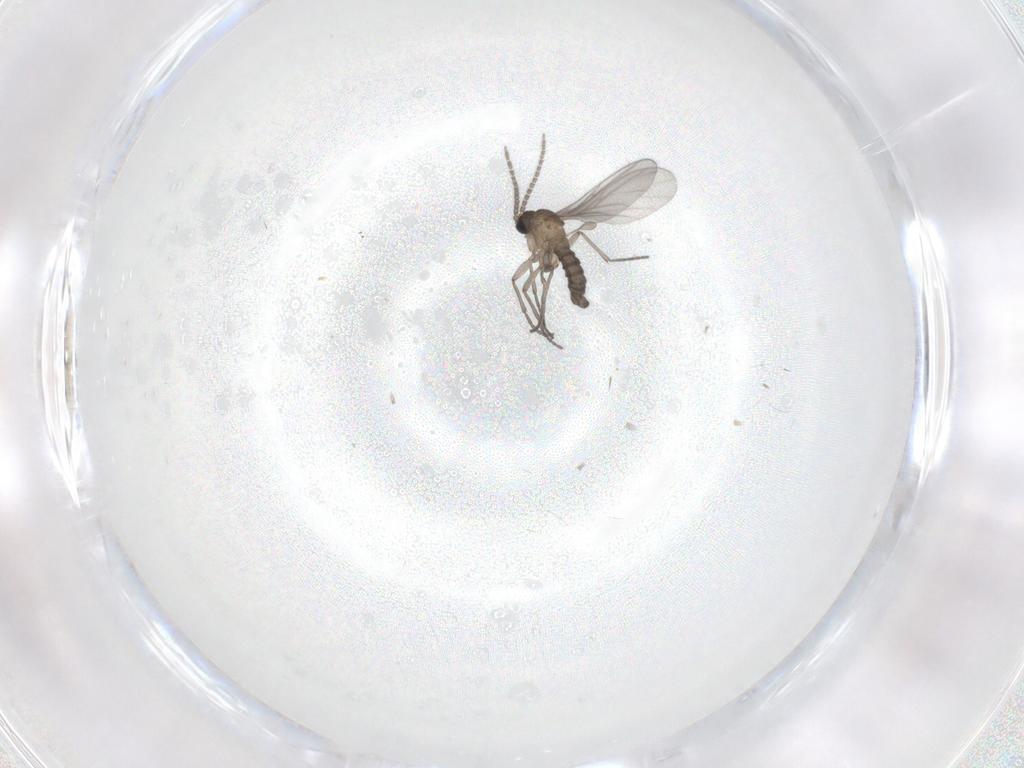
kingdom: Animalia
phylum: Arthropoda
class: Insecta
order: Diptera
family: Sciaridae
